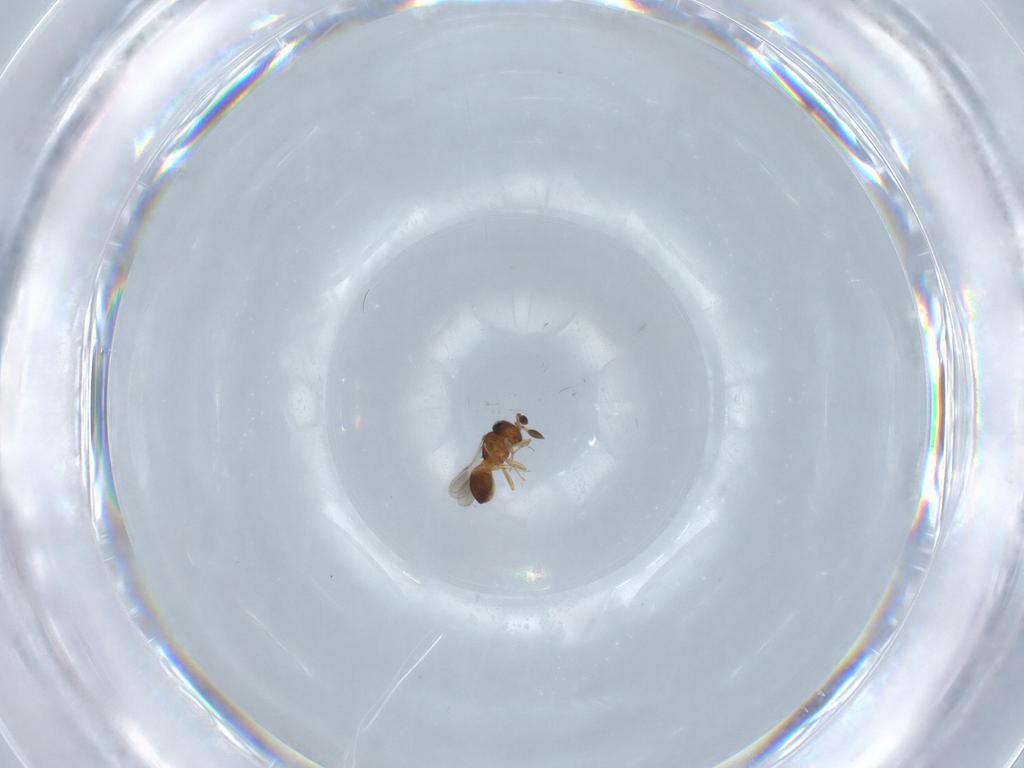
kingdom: Animalia
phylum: Arthropoda
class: Insecta
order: Hymenoptera
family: Scelionidae
